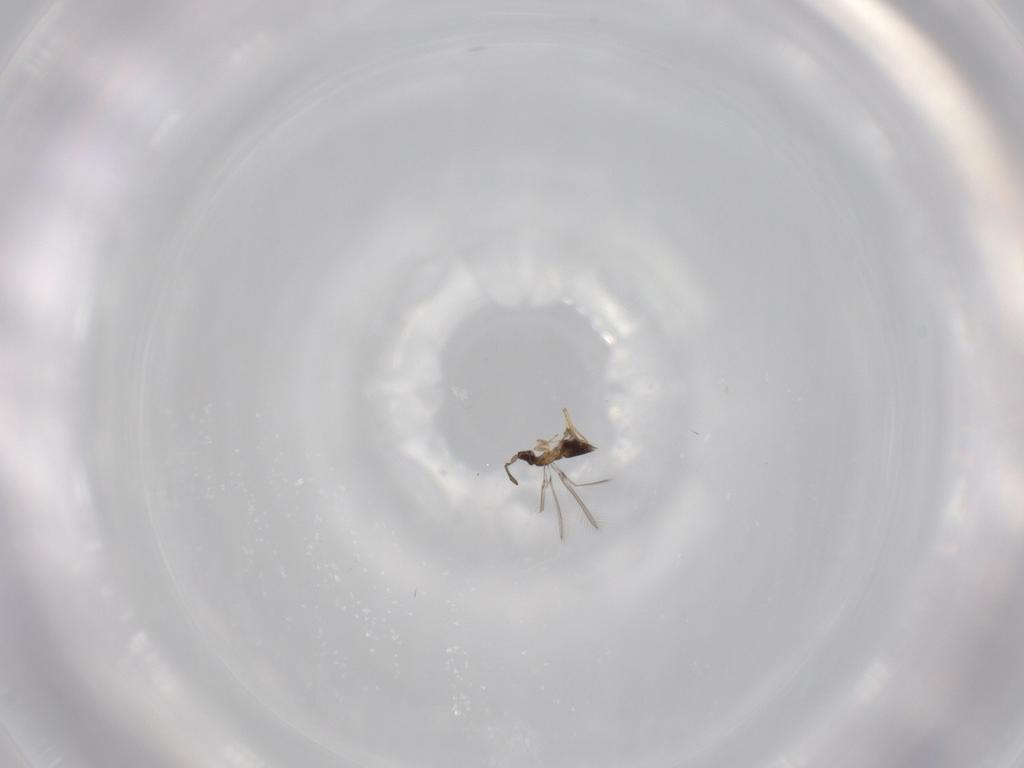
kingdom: Animalia
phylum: Arthropoda
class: Insecta
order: Hymenoptera
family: Mymaridae
